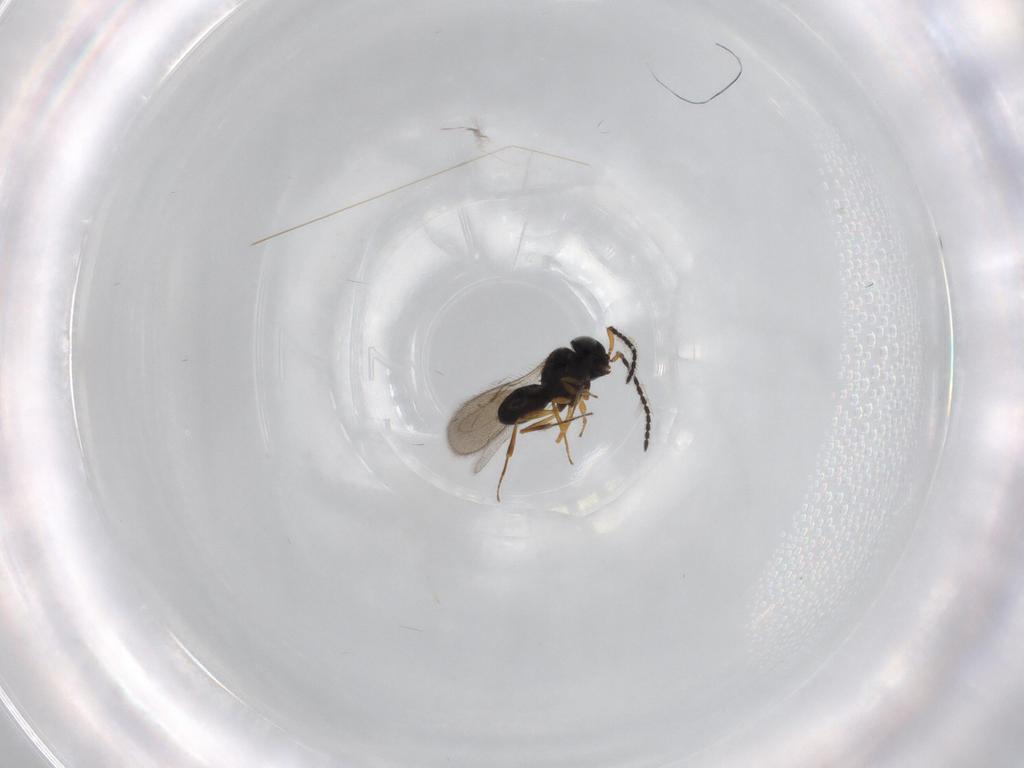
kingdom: Animalia
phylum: Arthropoda
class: Insecta
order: Hymenoptera
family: Scelionidae
